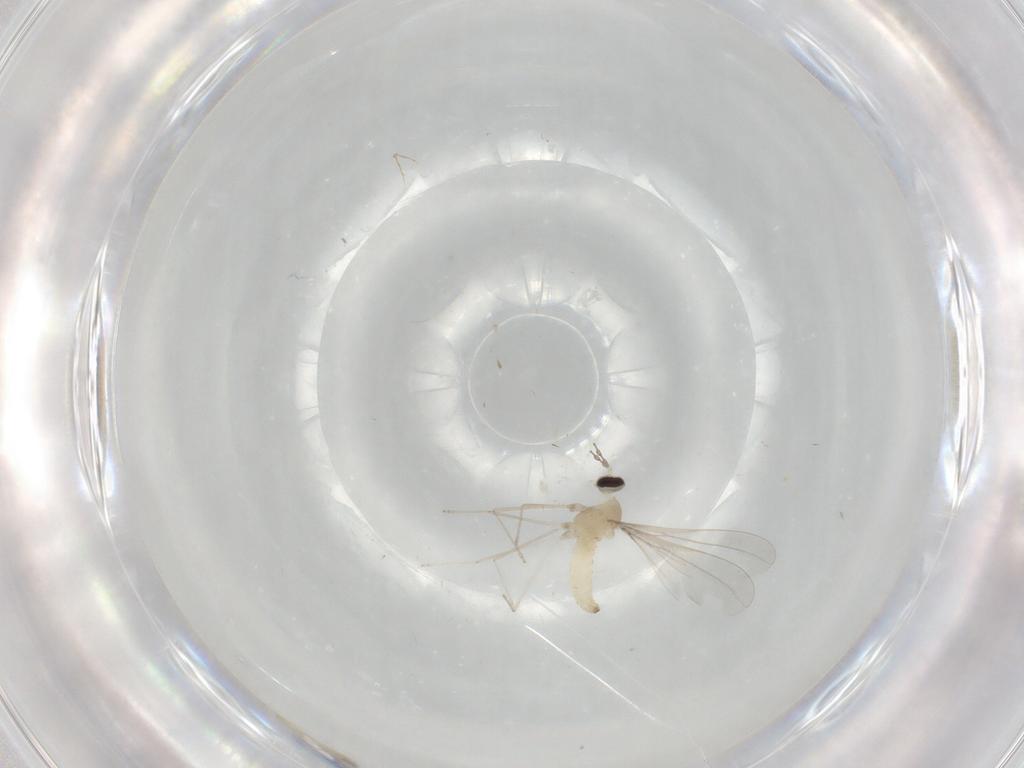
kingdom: Animalia
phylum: Arthropoda
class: Insecta
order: Diptera
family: Cecidomyiidae
